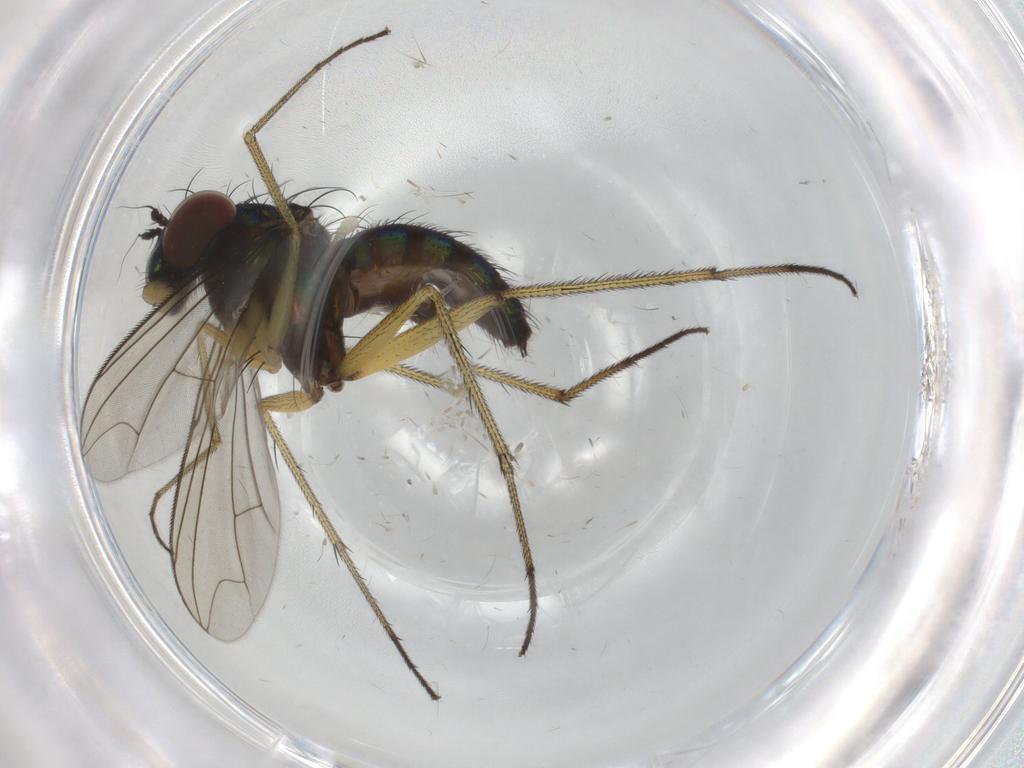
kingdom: Animalia
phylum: Arthropoda
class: Insecta
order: Diptera
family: Dolichopodidae
